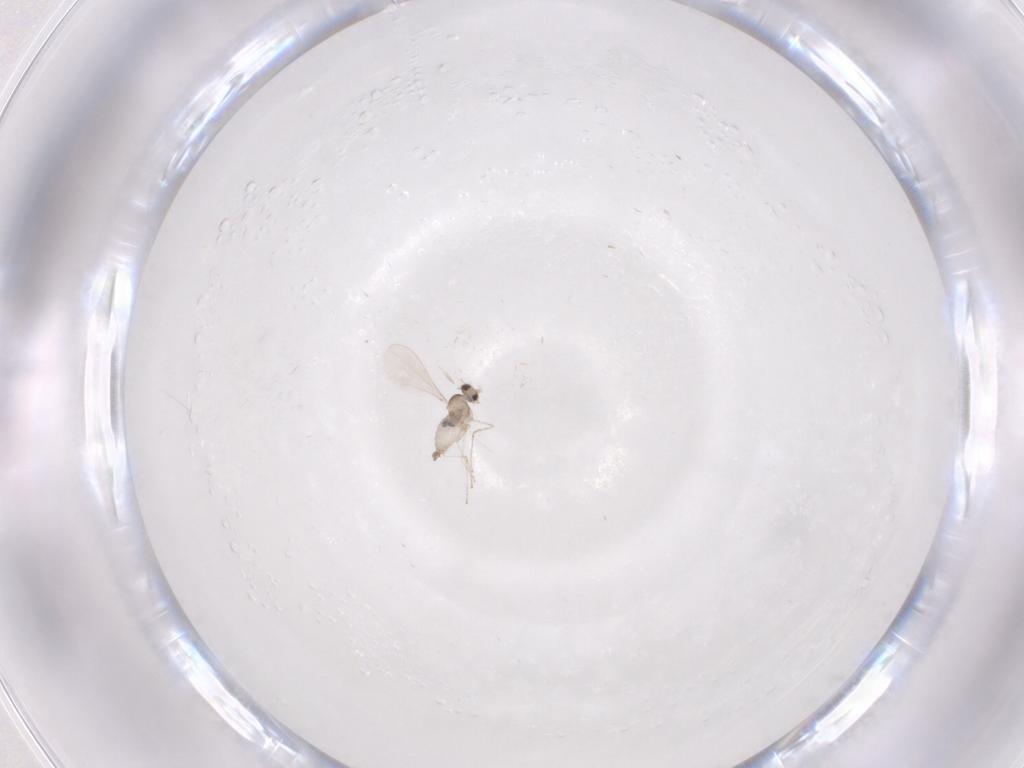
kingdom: Animalia
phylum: Arthropoda
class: Insecta
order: Diptera
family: Cecidomyiidae
